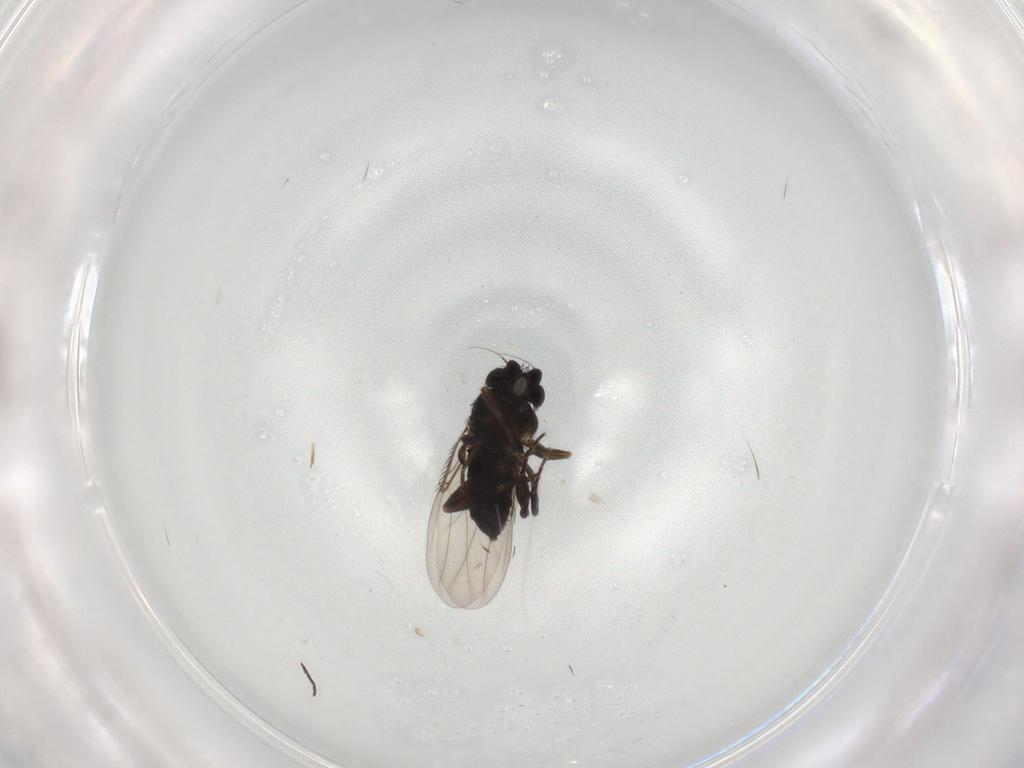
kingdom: Animalia
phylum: Arthropoda
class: Insecta
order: Diptera
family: Phoridae
